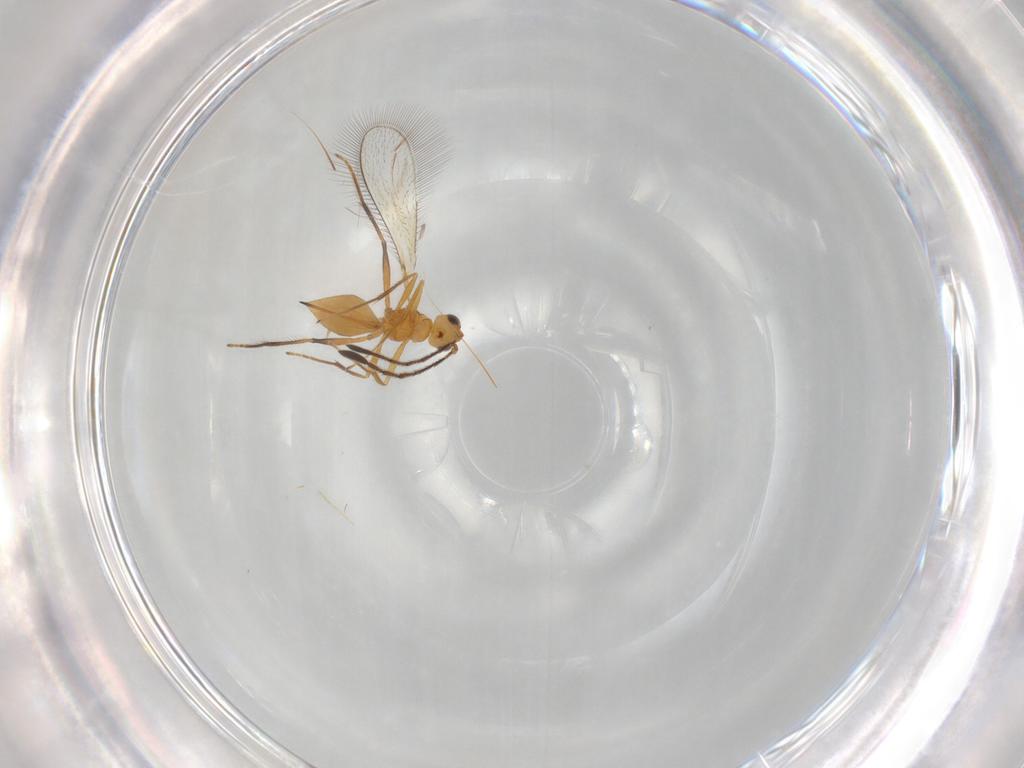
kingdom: Animalia
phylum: Arthropoda
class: Insecta
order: Hymenoptera
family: Mymaridae
